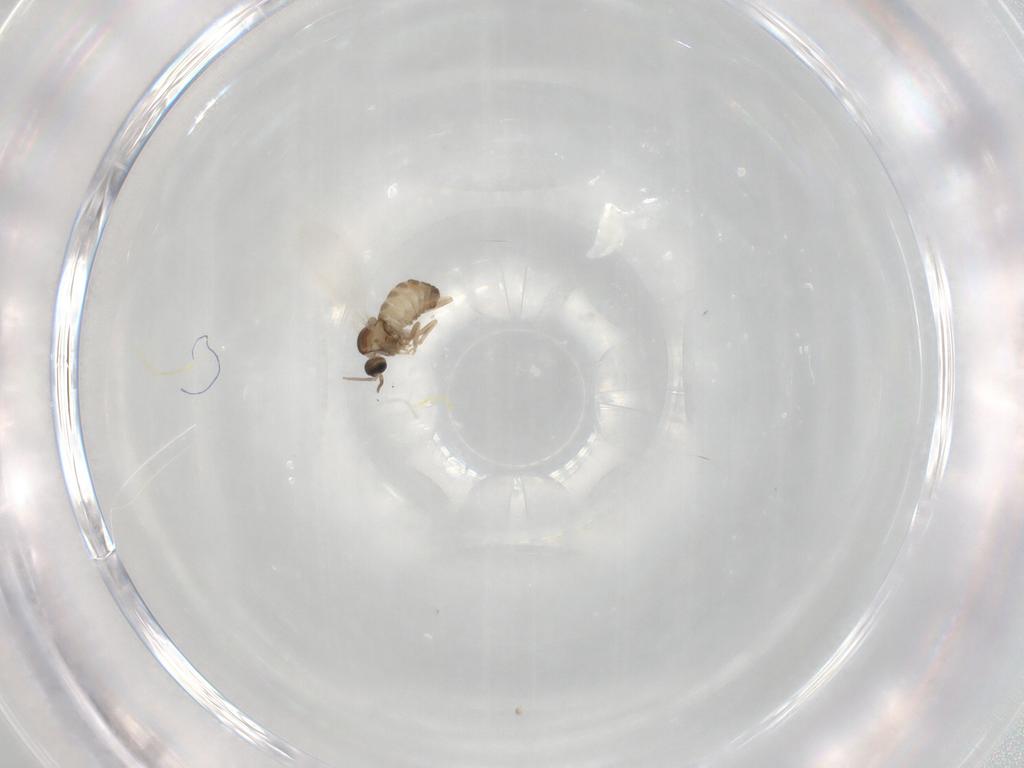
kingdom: Animalia
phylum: Arthropoda
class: Insecta
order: Diptera
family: Cecidomyiidae
